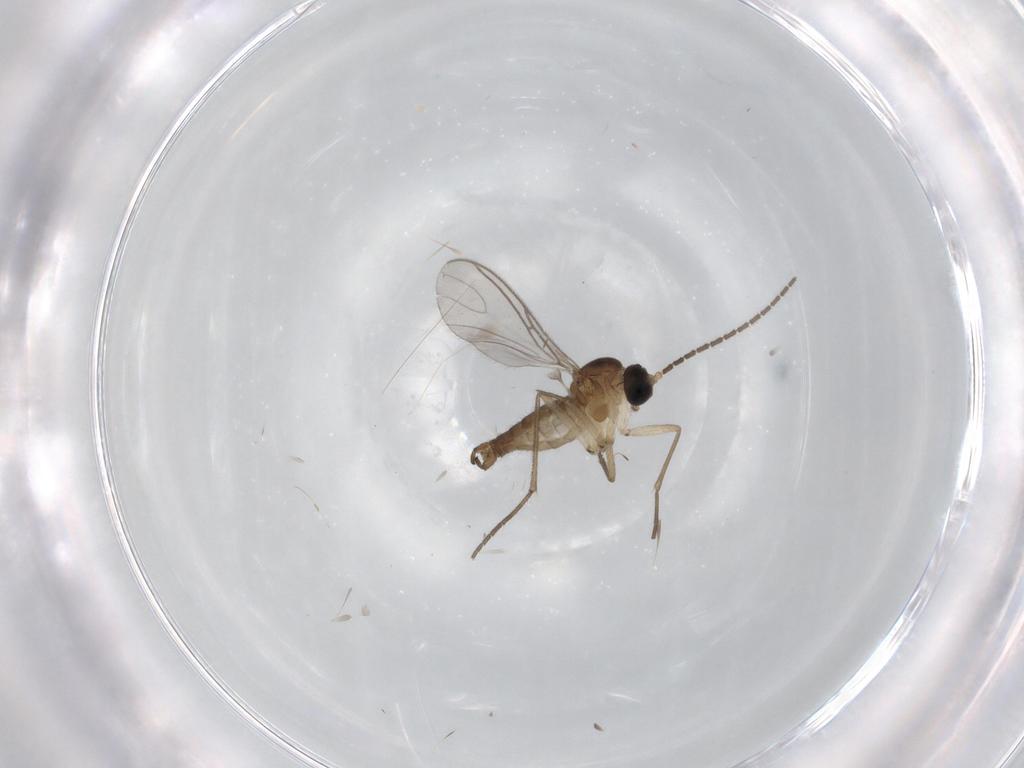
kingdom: Animalia
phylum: Arthropoda
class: Insecta
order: Diptera
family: Sciaridae
